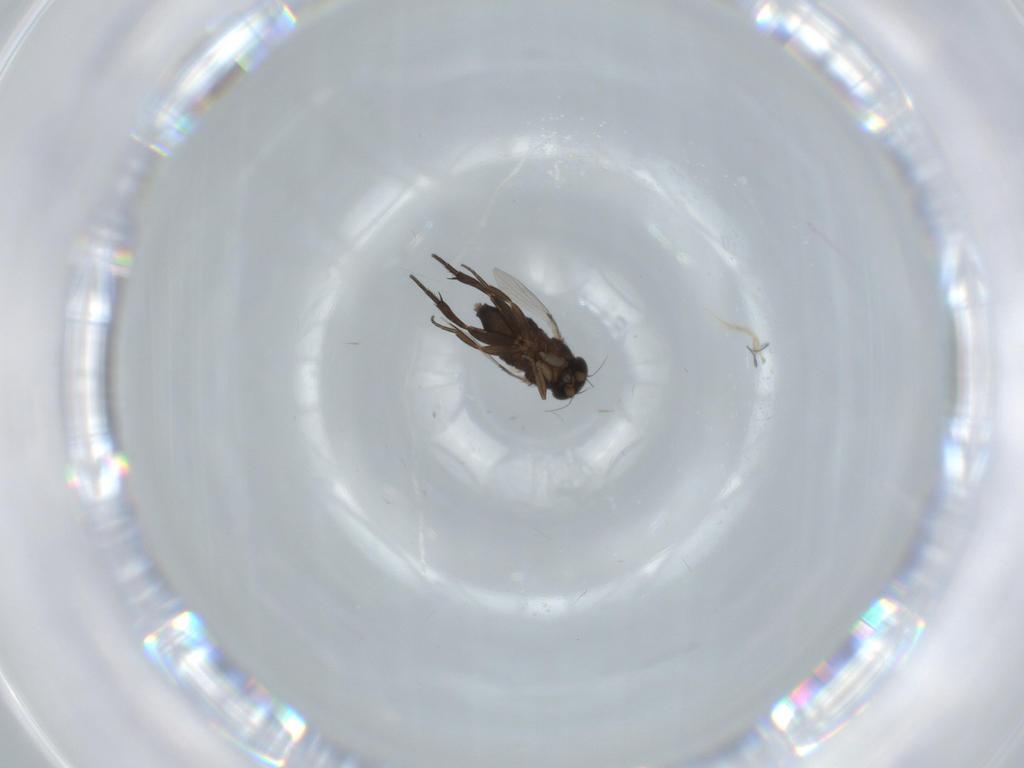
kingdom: Animalia
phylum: Arthropoda
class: Insecta
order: Diptera
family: Phoridae
